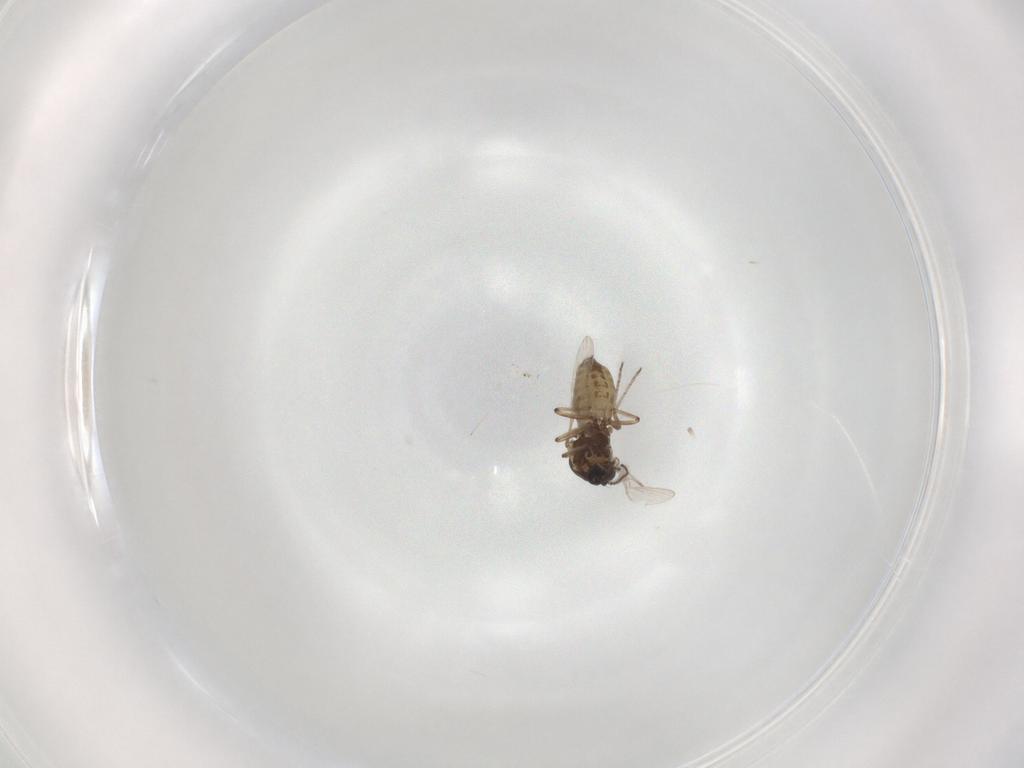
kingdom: Animalia
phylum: Arthropoda
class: Insecta
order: Diptera
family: Ceratopogonidae
